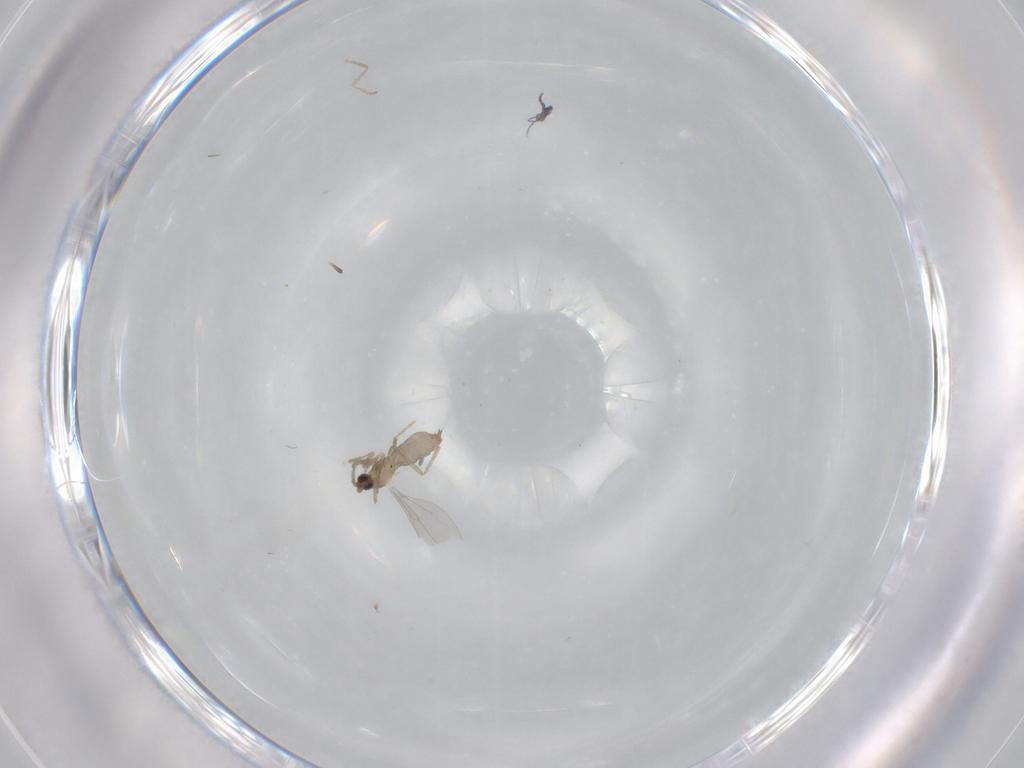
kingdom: Animalia
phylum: Arthropoda
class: Insecta
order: Diptera
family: Cecidomyiidae
